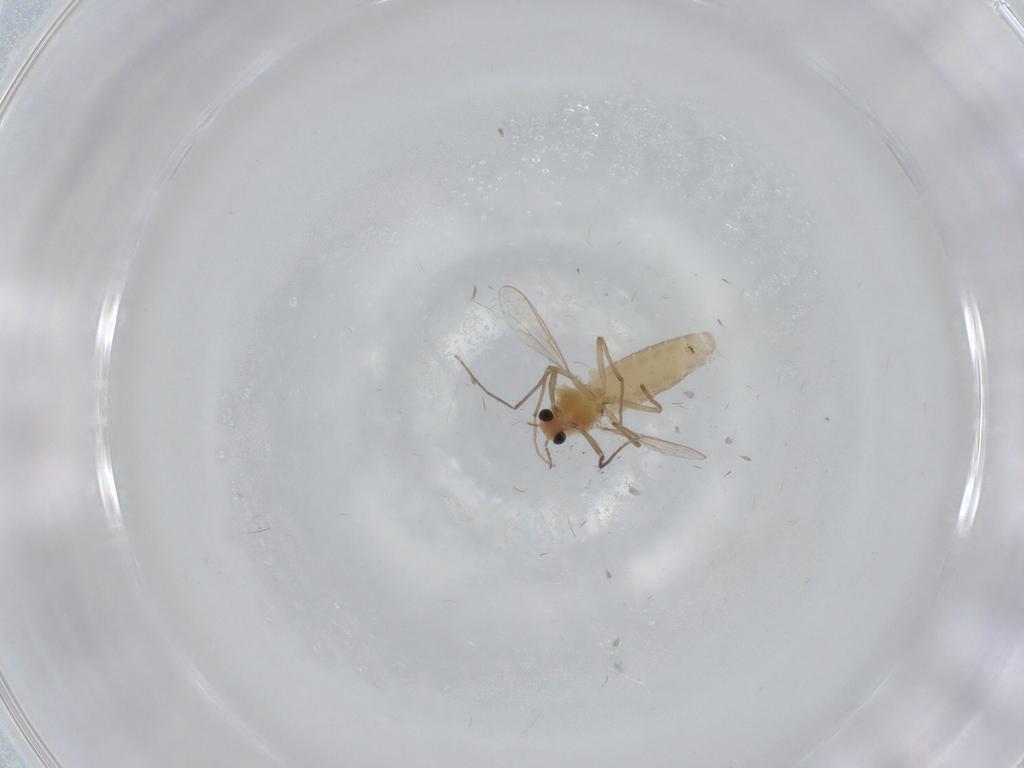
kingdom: Animalia
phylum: Arthropoda
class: Insecta
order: Diptera
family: Chironomidae
